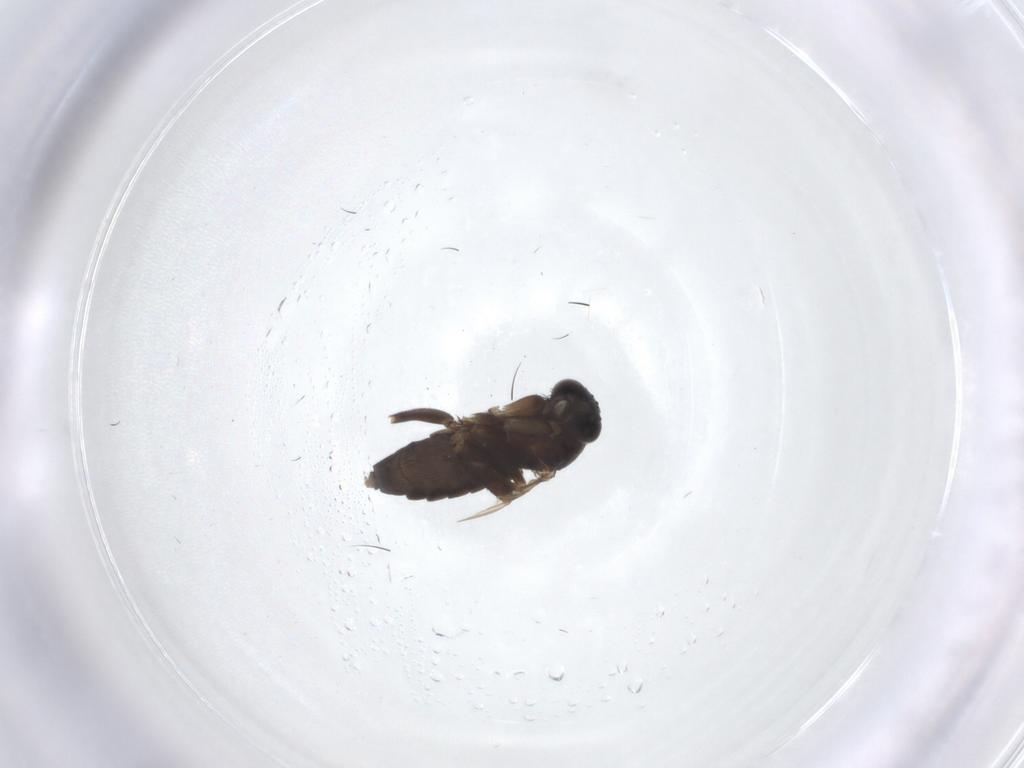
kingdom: Animalia
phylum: Arthropoda
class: Insecta
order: Diptera
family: Phoridae
